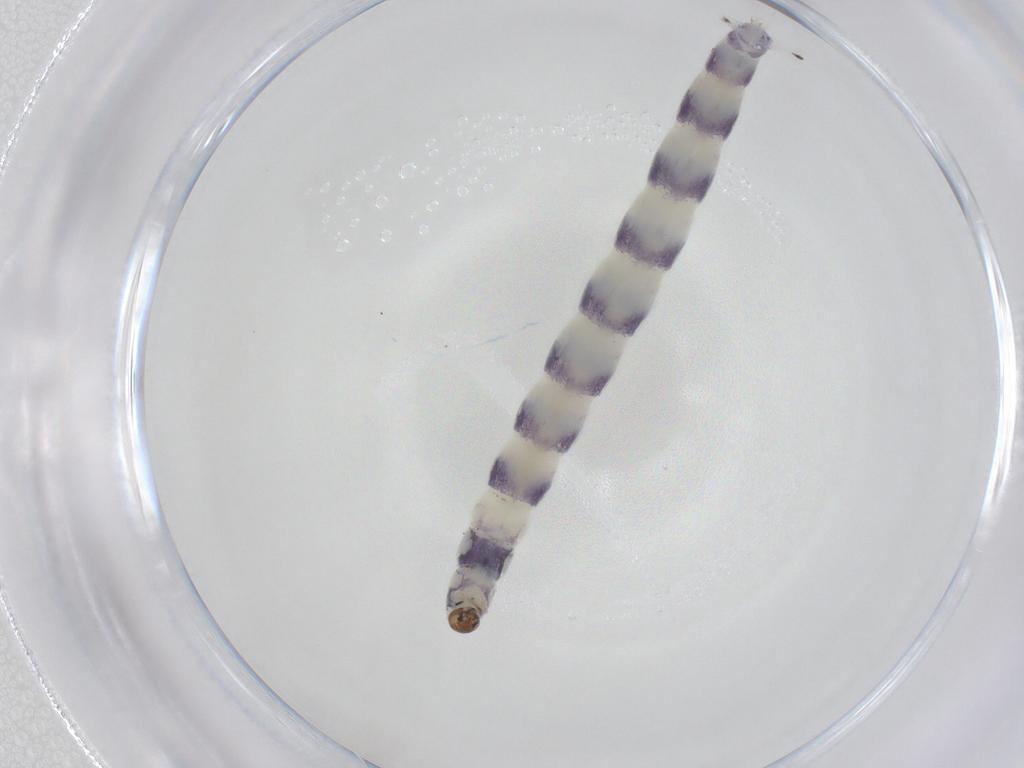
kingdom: Animalia
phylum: Arthropoda
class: Insecta
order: Diptera
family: Chironomidae
